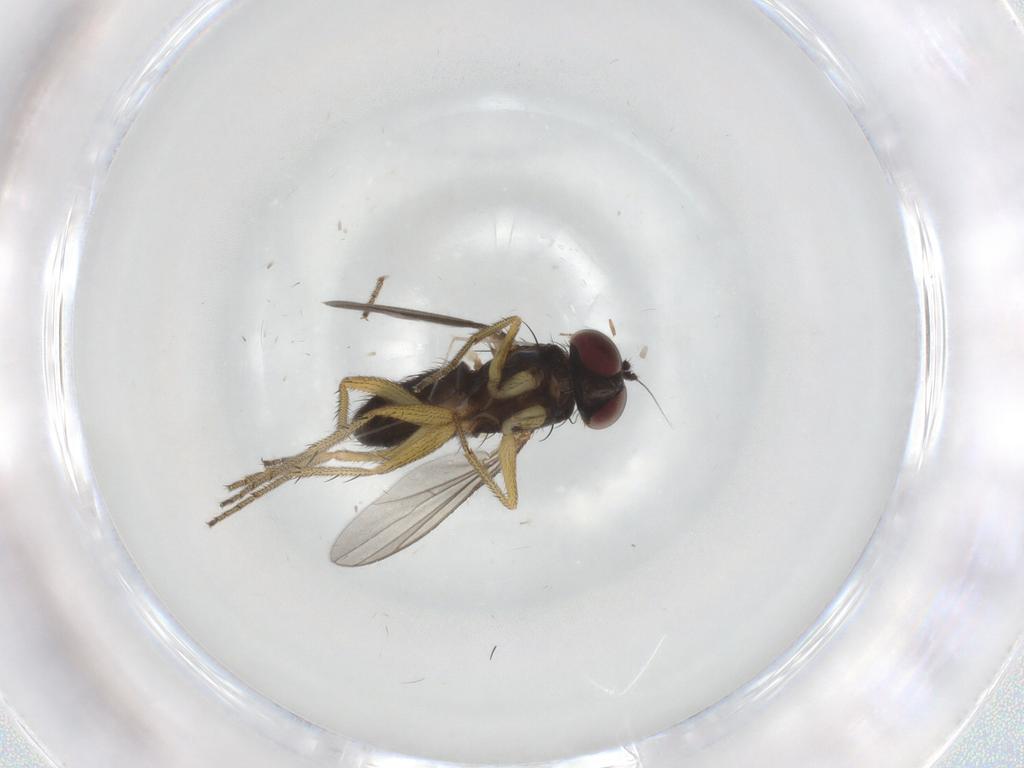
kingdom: Animalia
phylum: Arthropoda
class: Insecta
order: Diptera
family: Dolichopodidae
